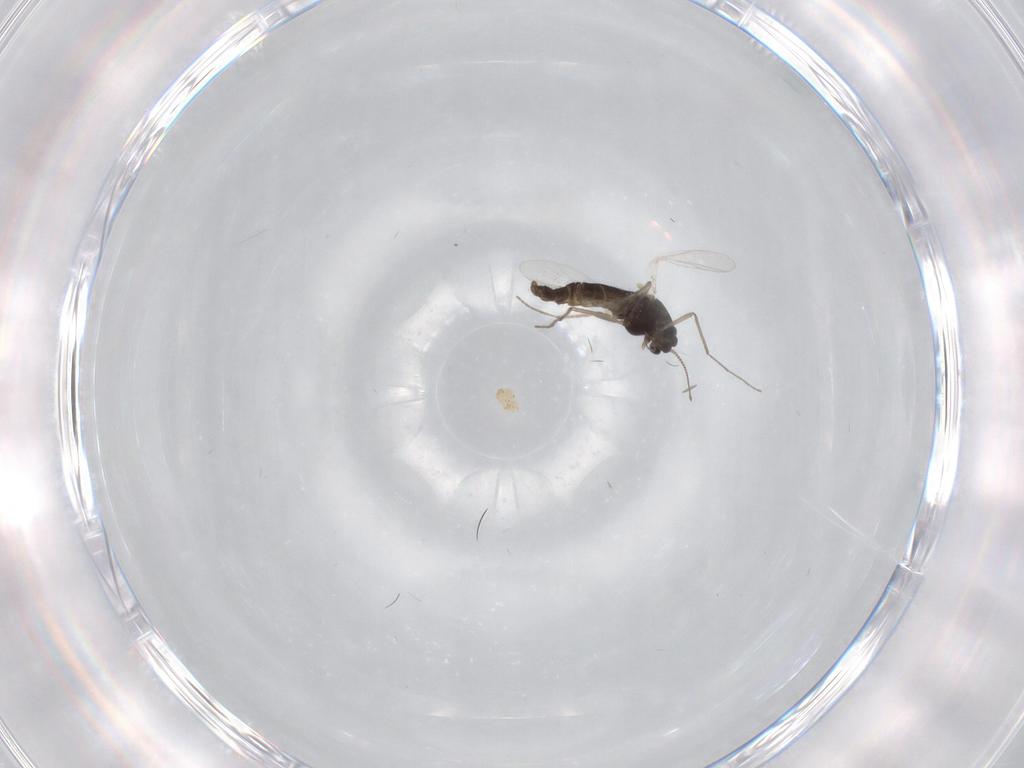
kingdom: Animalia
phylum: Arthropoda
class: Insecta
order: Diptera
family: Chironomidae
